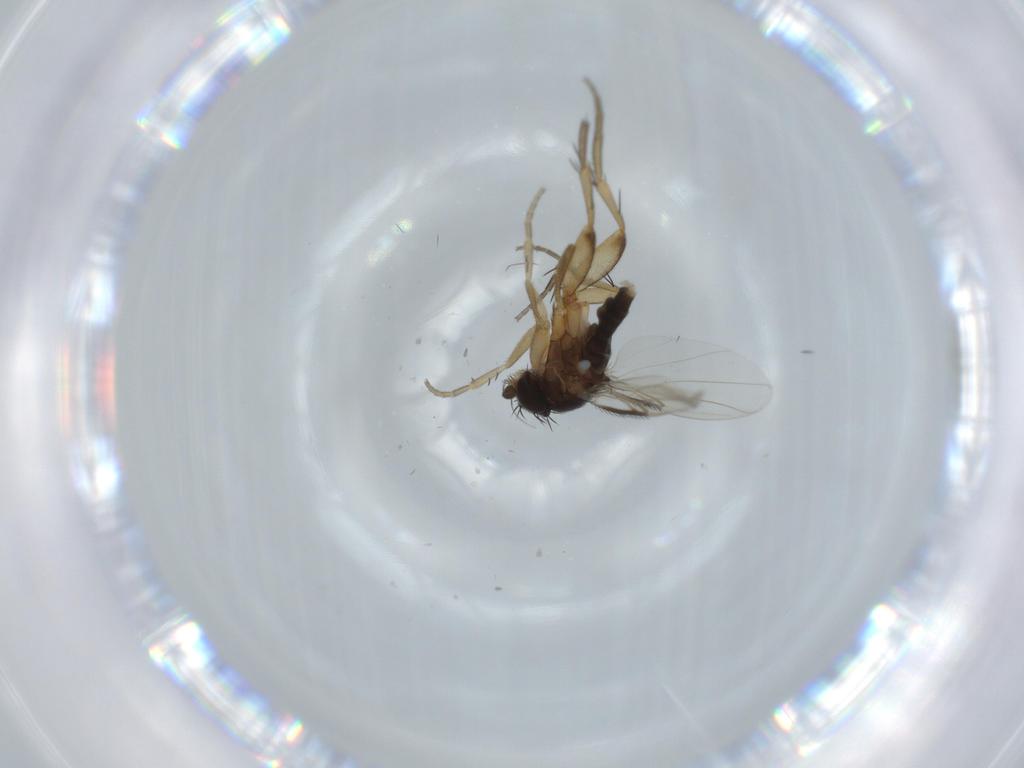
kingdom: Animalia
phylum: Arthropoda
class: Insecta
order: Diptera
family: Phoridae
